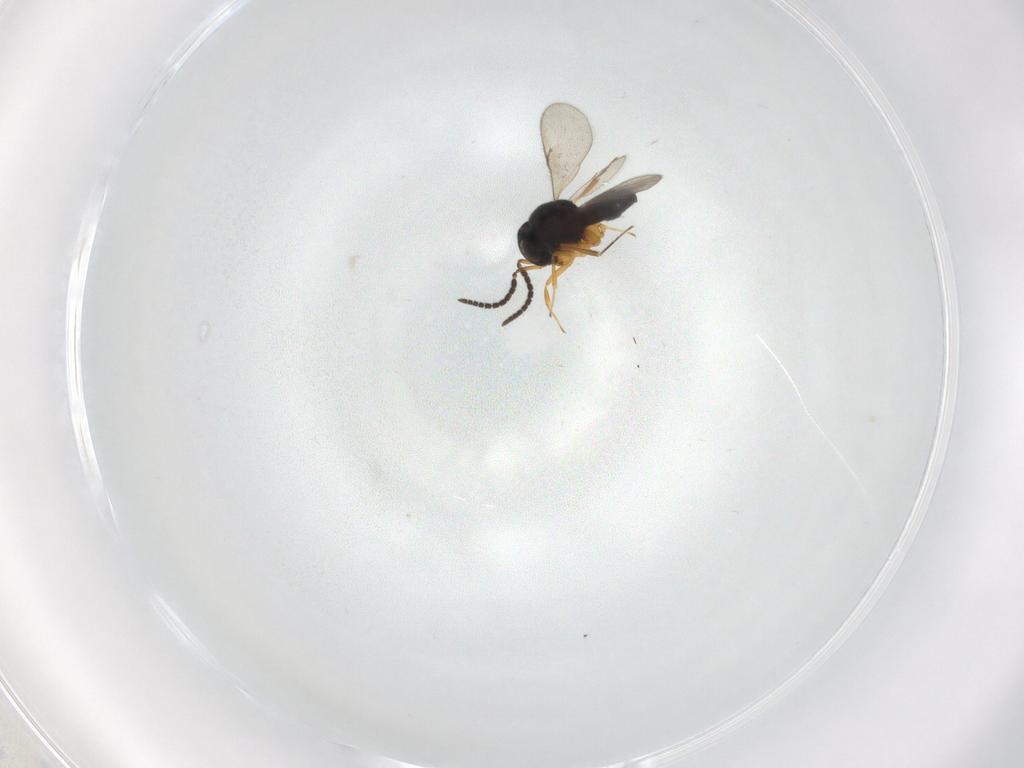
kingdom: Animalia
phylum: Arthropoda
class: Insecta
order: Hymenoptera
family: Scelionidae
